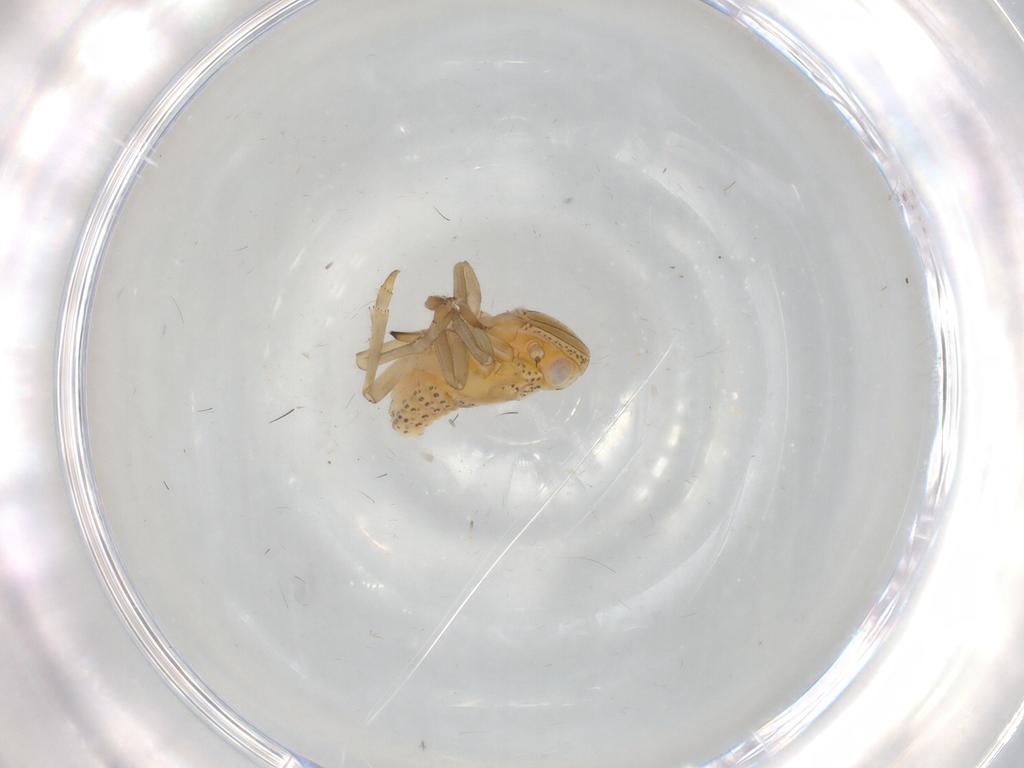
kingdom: Animalia
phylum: Arthropoda
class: Insecta
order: Hemiptera
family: Tropiduchidae
